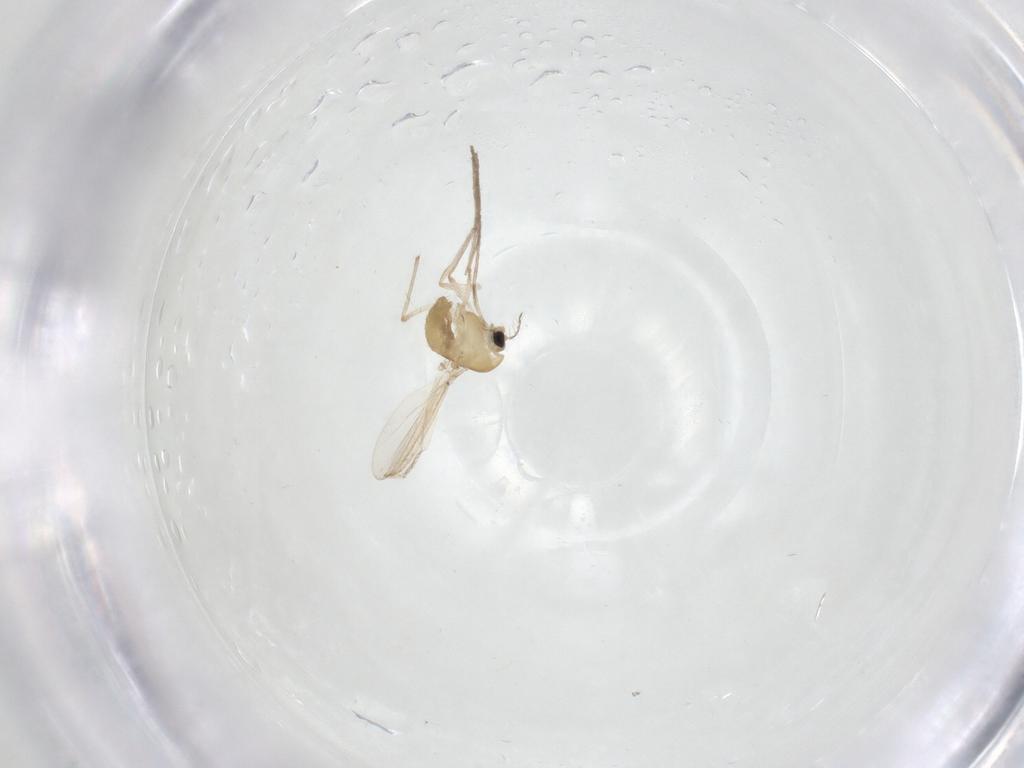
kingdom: Animalia
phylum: Arthropoda
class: Insecta
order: Diptera
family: Chironomidae
